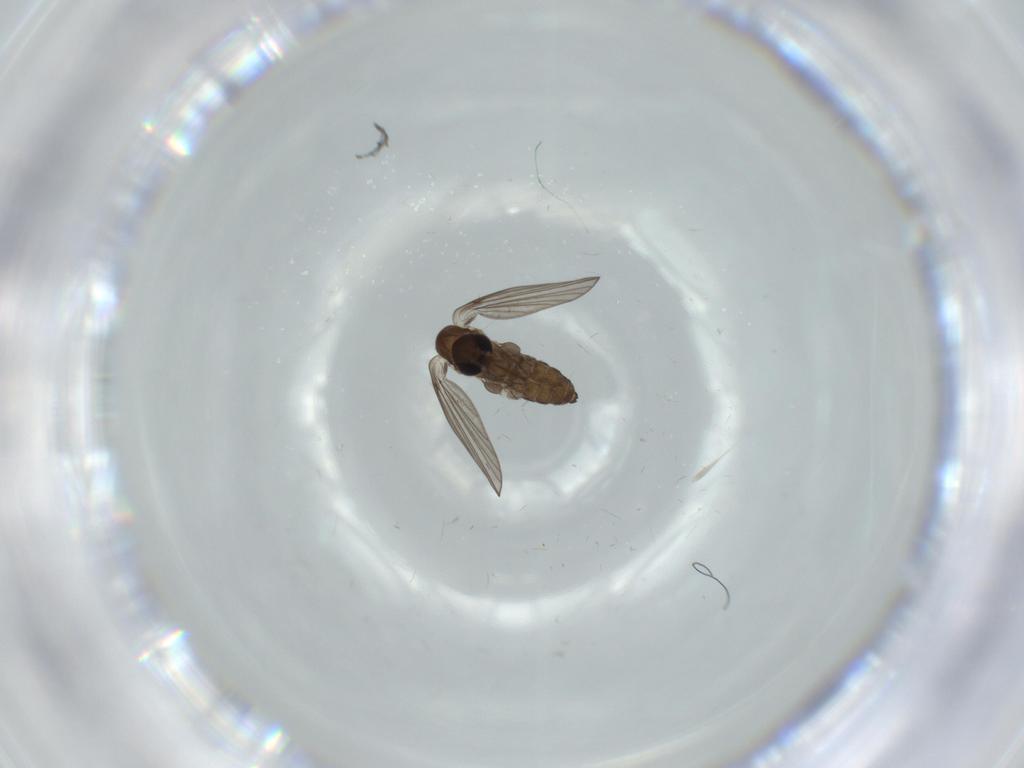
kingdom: Animalia
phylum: Arthropoda
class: Insecta
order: Diptera
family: Psychodidae
